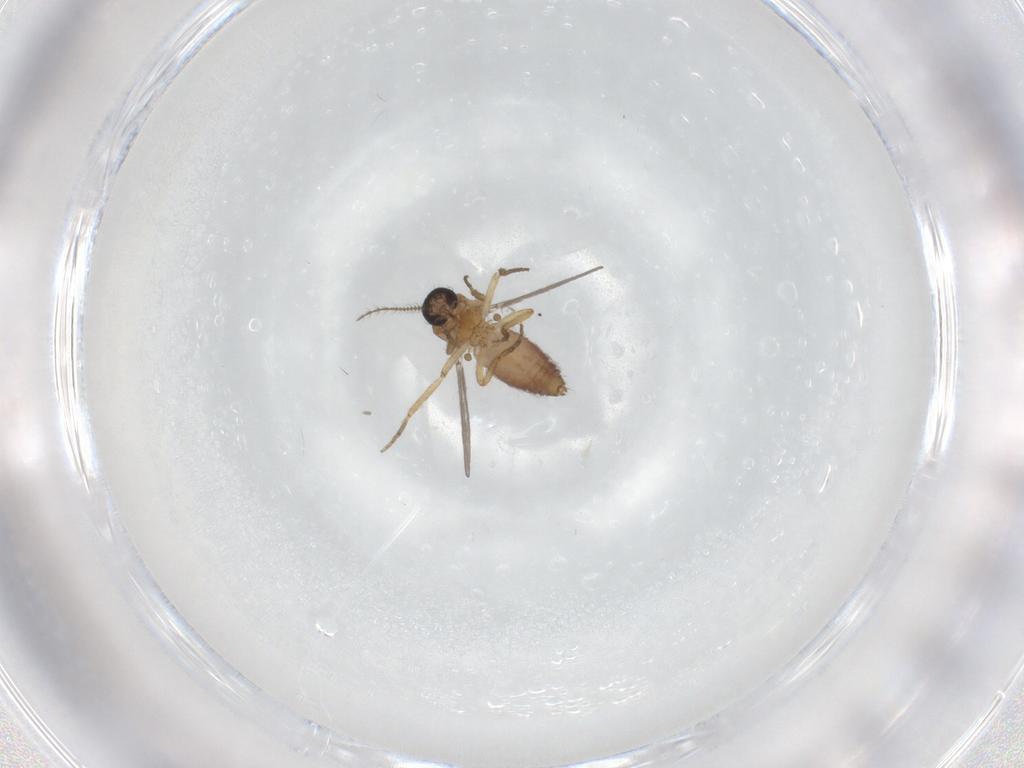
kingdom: Animalia
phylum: Arthropoda
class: Insecta
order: Diptera
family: Ceratopogonidae
